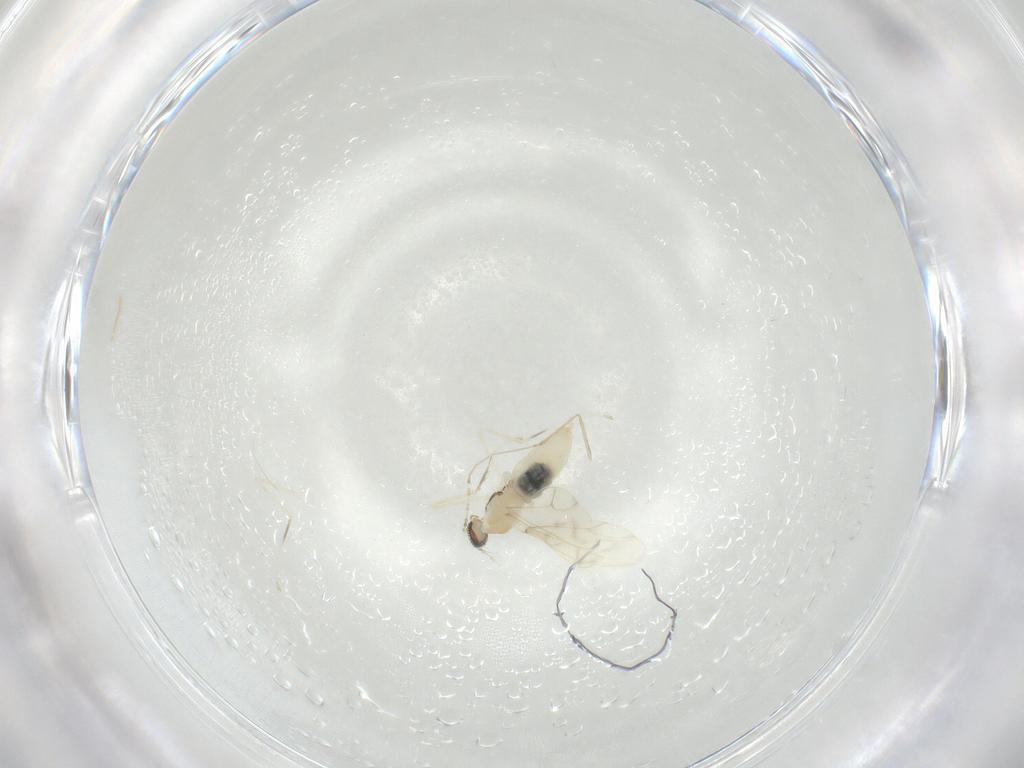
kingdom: Animalia
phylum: Arthropoda
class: Insecta
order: Diptera
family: Cecidomyiidae
